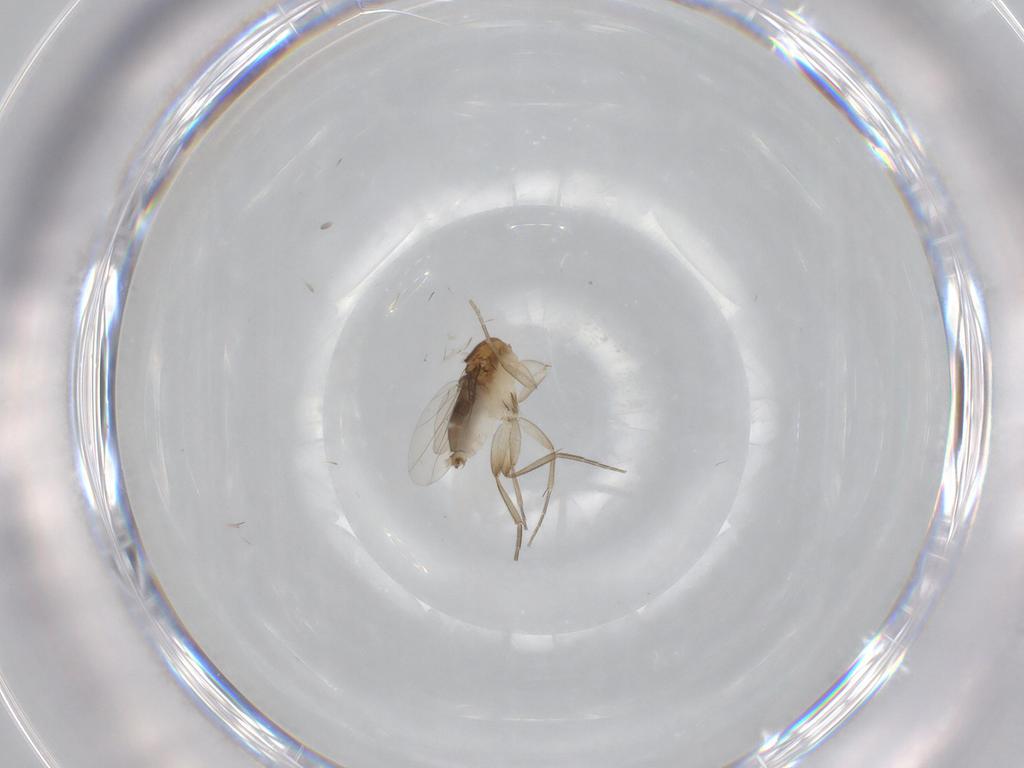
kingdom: Animalia
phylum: Arthropoda
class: Insecta
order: Diptera
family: Phoridae
